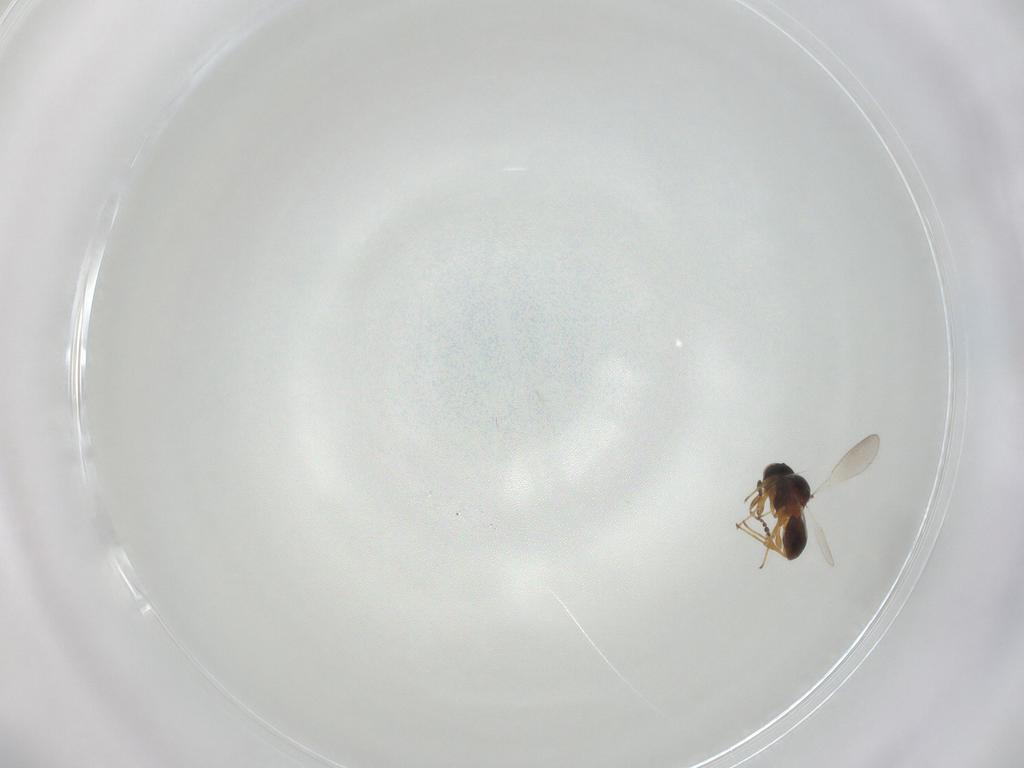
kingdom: Animalia
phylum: Arthropoda
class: Insecta
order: Hymenoptera
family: Platygastridae
